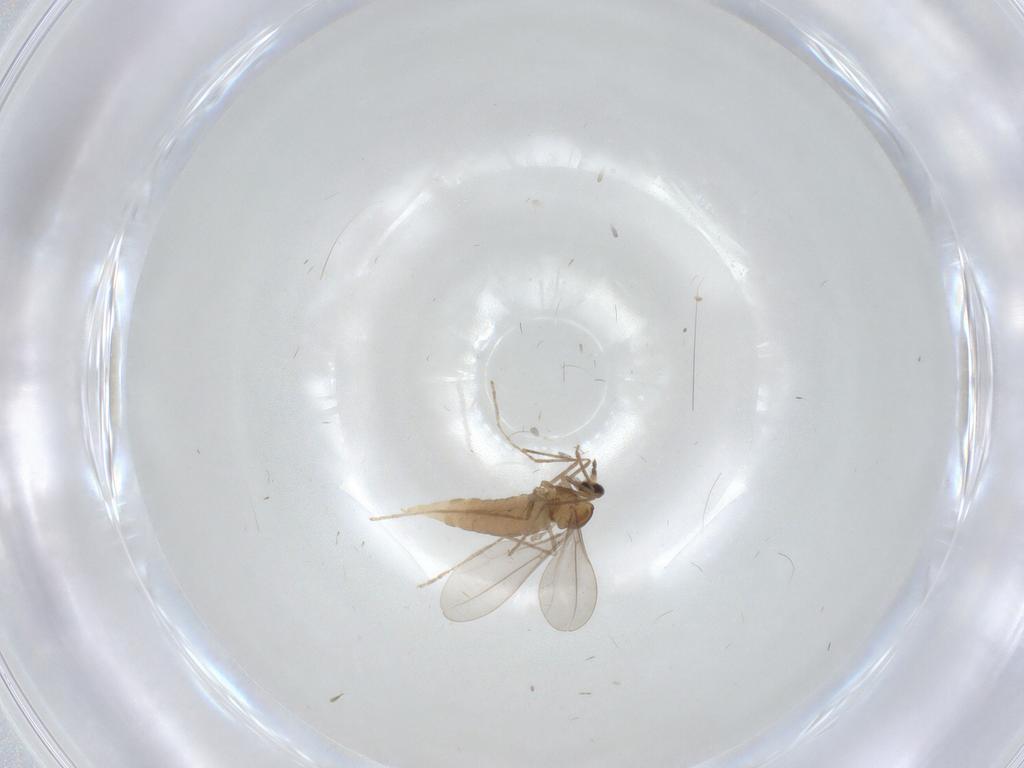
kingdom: Animalia
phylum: Arthropoda
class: Insecta
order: Diptera
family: Cecidomyiidae
